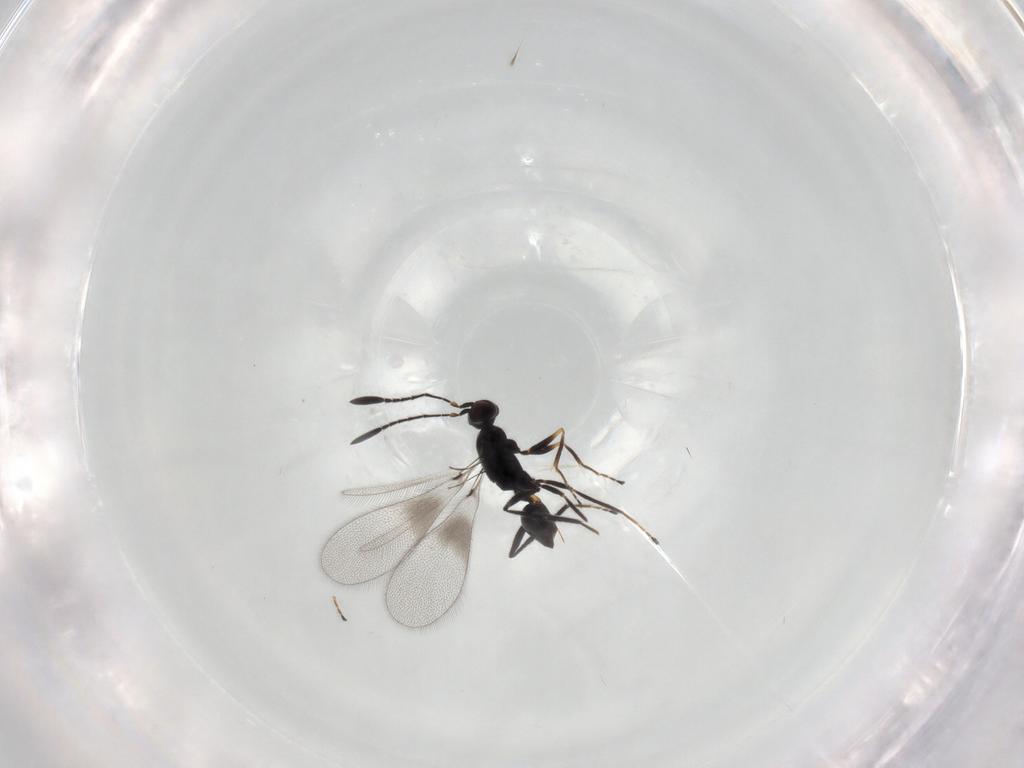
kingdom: Animalia
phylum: Arthropoda
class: Insecta
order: Hymenoptera
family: Mymaridae
